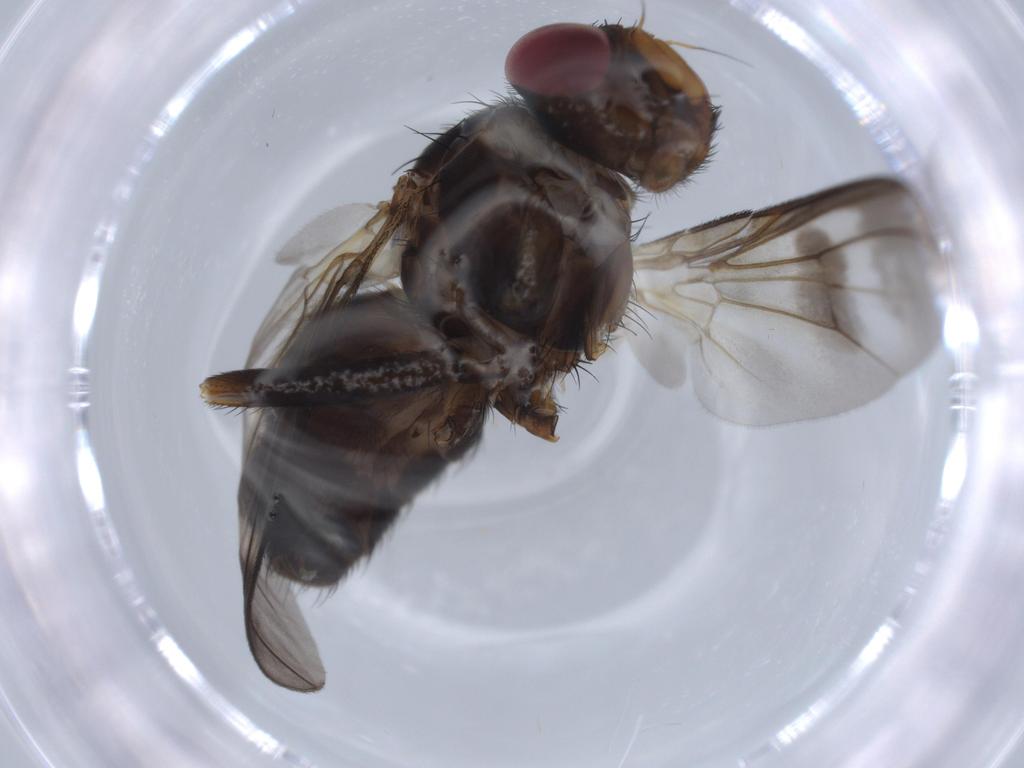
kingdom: Animalia
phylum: Arthropoda
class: Insecta
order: Diptera
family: Calliphoridae
